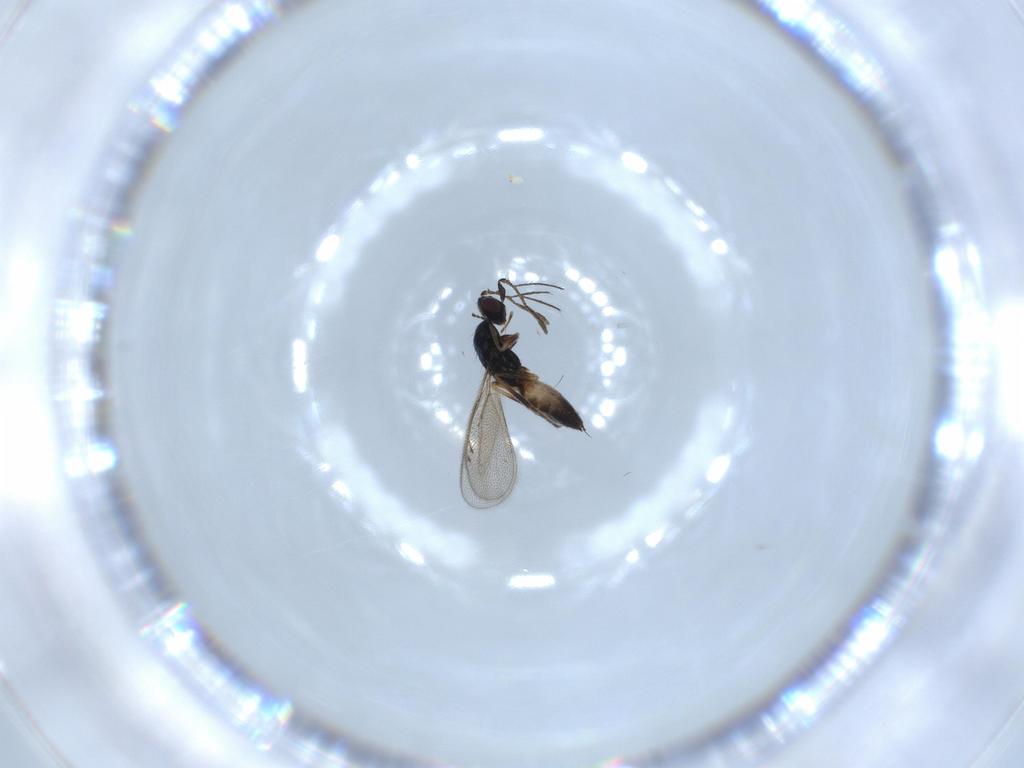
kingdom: Animalia
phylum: Arthropoda
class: Insecta
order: Hymenoptera
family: Eulophidae
